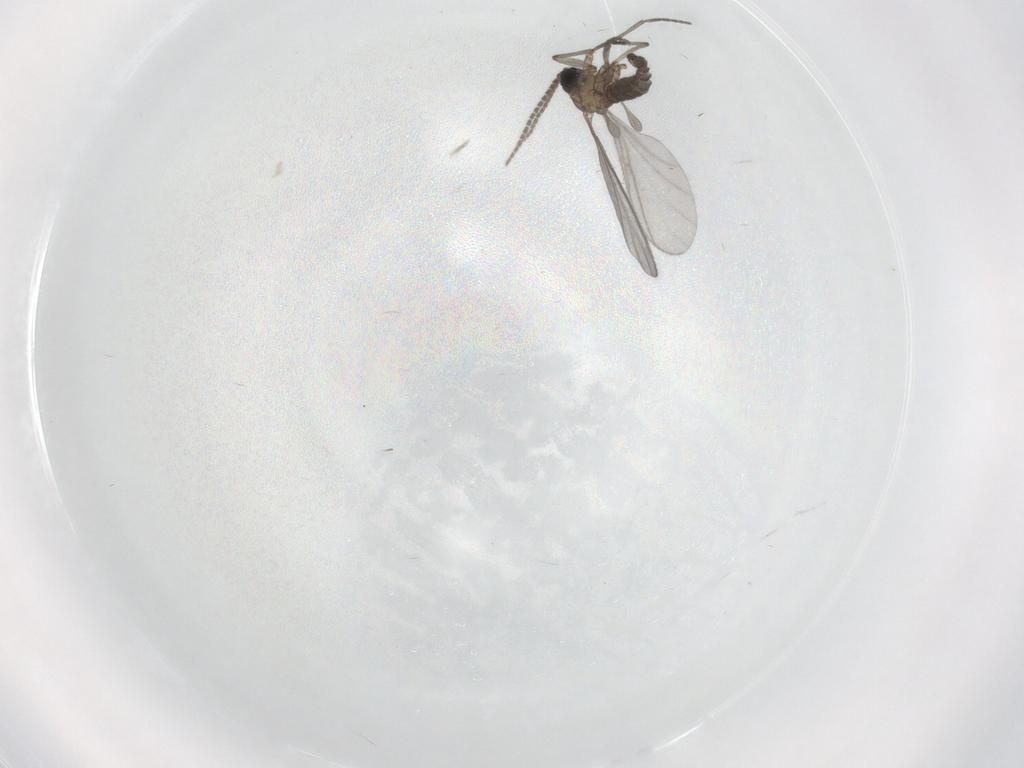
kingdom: Animalia
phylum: Arthropoda
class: Insecta
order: Diptera
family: Sciaridae
